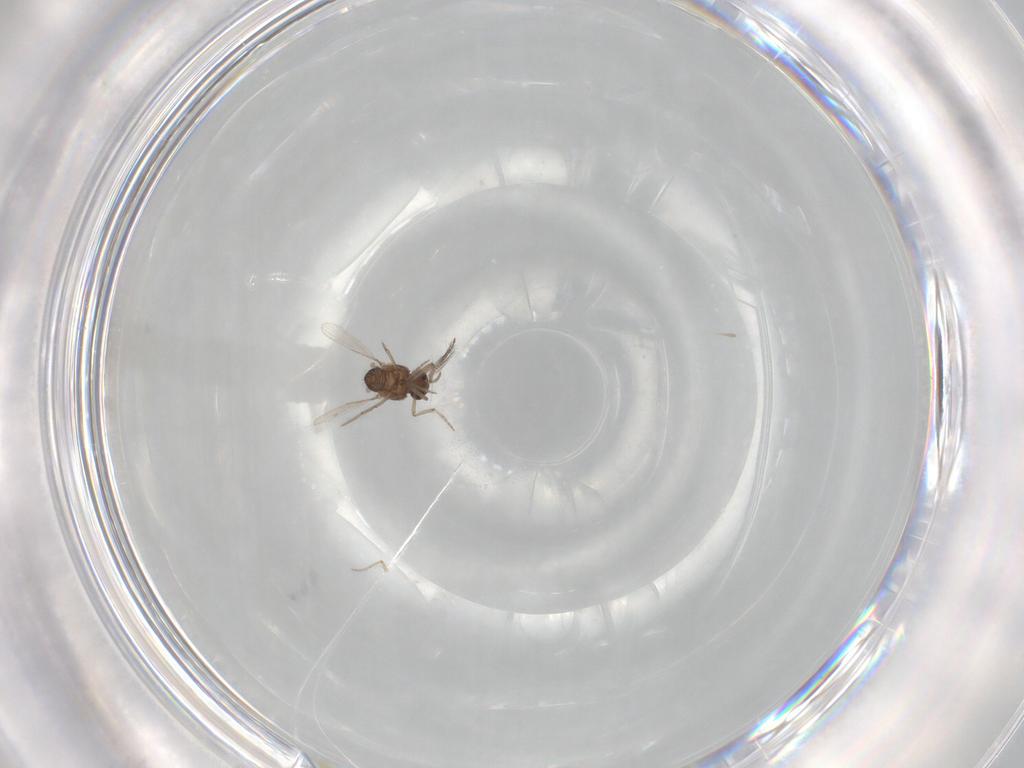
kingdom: Animalia
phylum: Arthropoda
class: Insecta
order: Diptera
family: Ceratopogonidae
